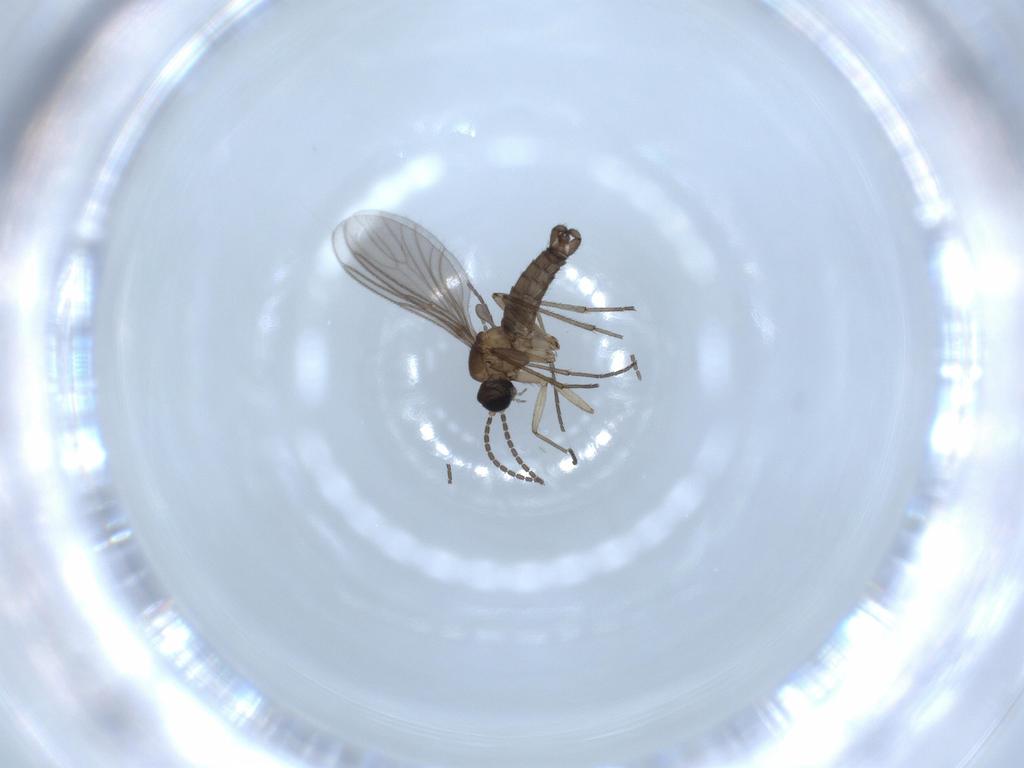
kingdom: Animalia
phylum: Arthropoda
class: Insecta
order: Diptera
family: Sciaridae
